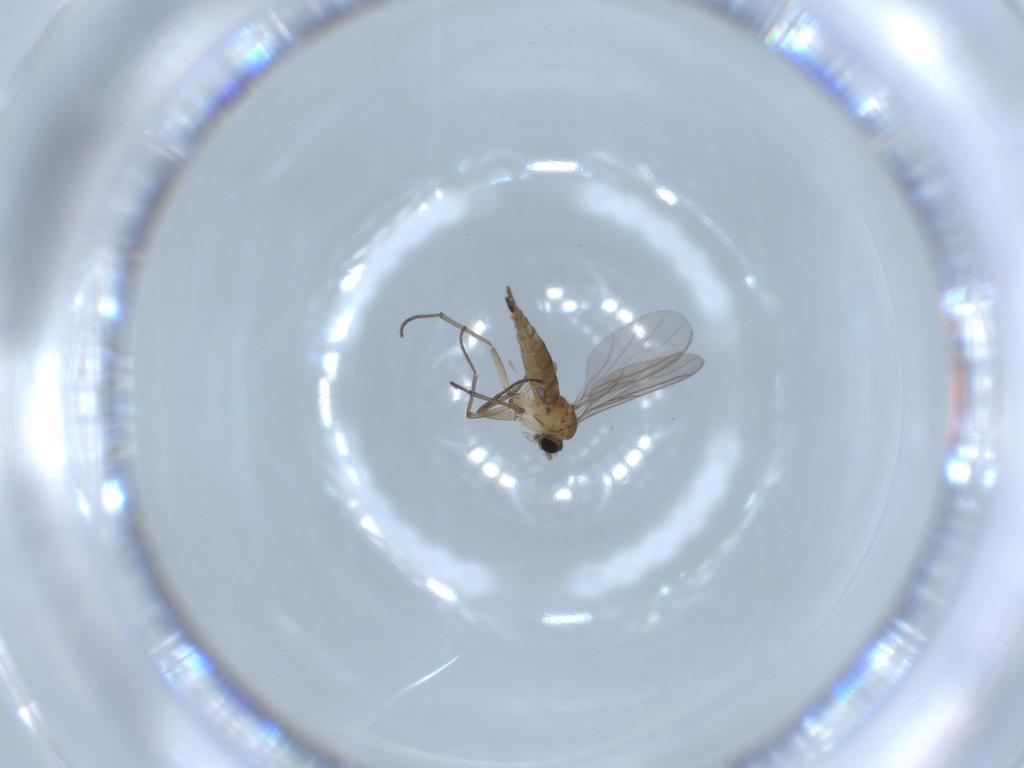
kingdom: Animalia
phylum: Arthropoda
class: Insecta
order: Diptera
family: Sciaridae
